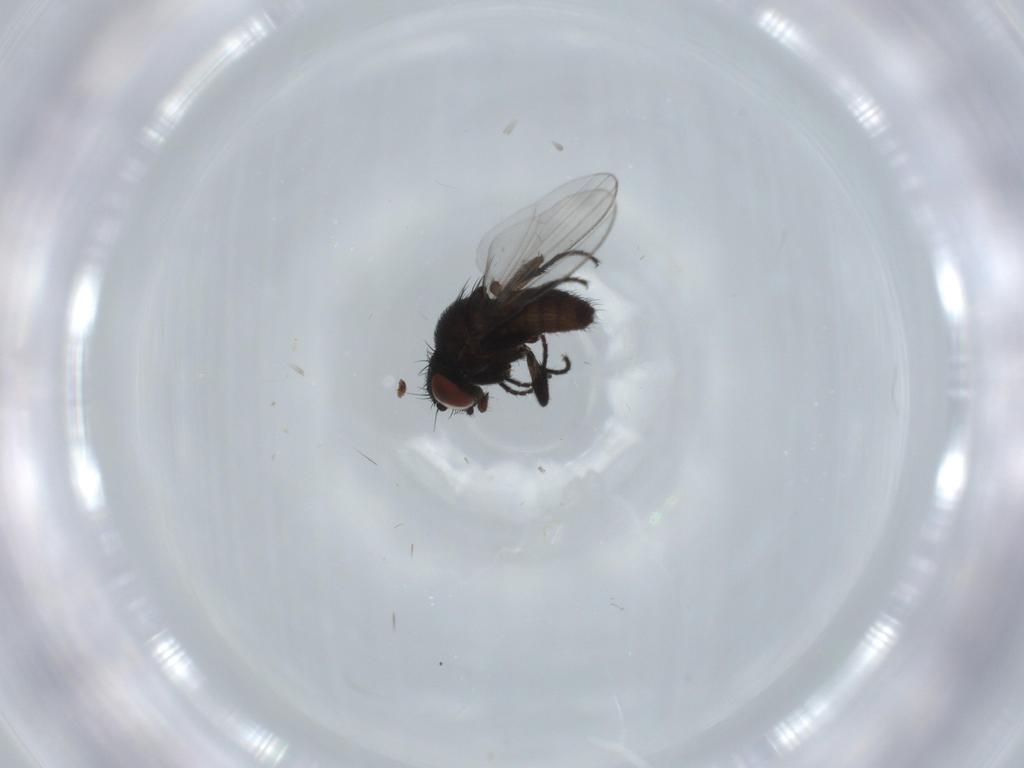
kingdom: Animalia
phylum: Arthropoda
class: Insecta
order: Diptera
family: Milichiidae
